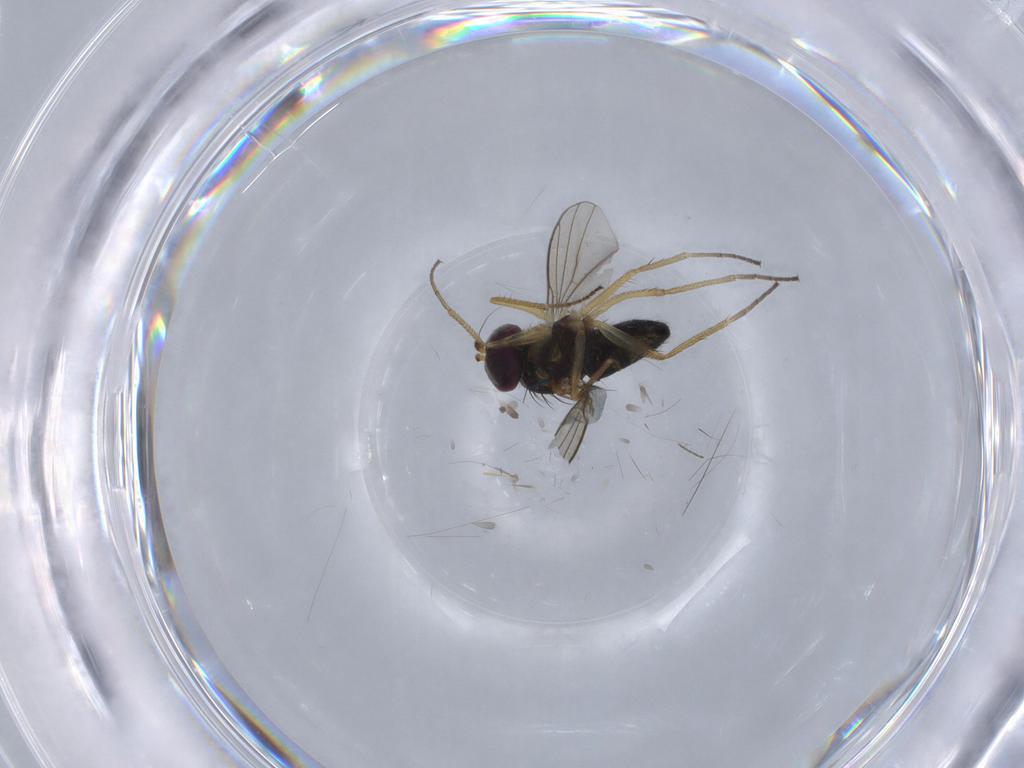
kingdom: Animalia
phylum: Arthropoda
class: Insecta
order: Diptera
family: Chironomidae
